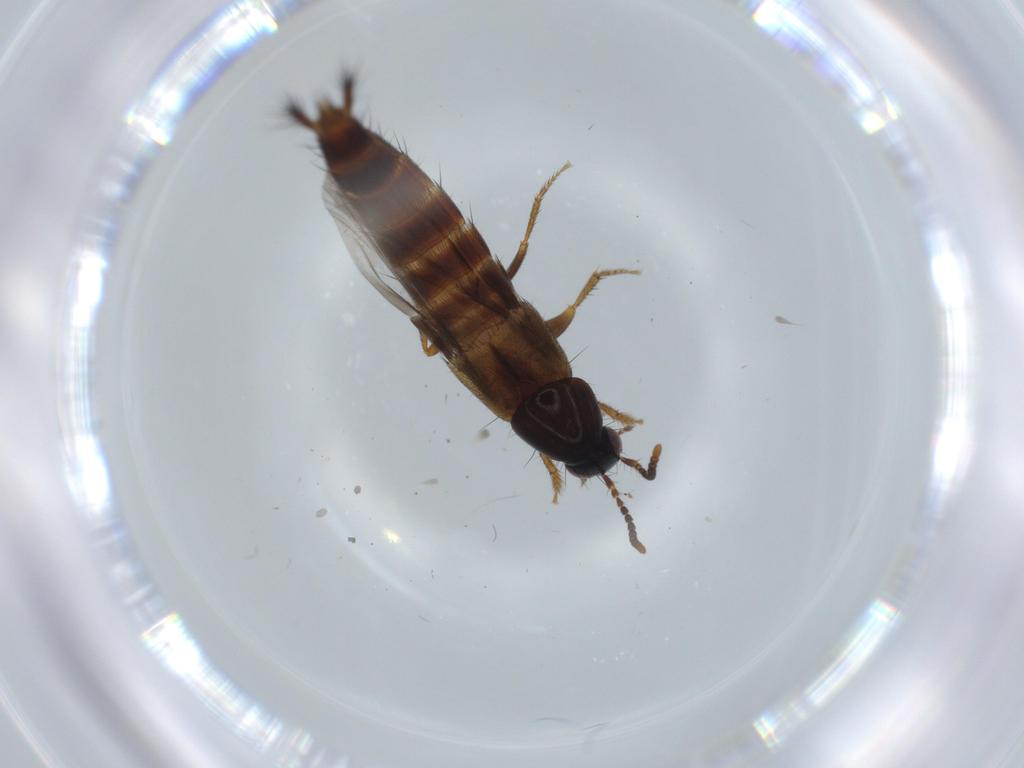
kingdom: Animalia
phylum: Arthropoda
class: Insecta
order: Coleoptera
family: Staphylinidae
